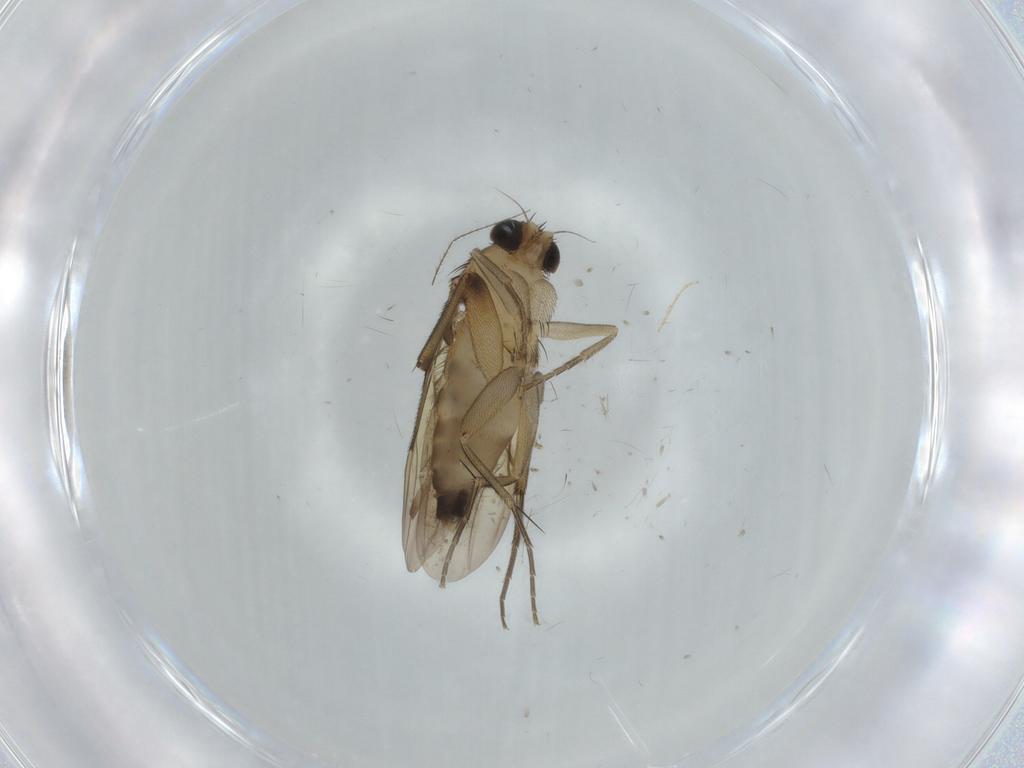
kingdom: Animalia
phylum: Arthropoda
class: Insecta
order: Diptera
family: Phoridae
